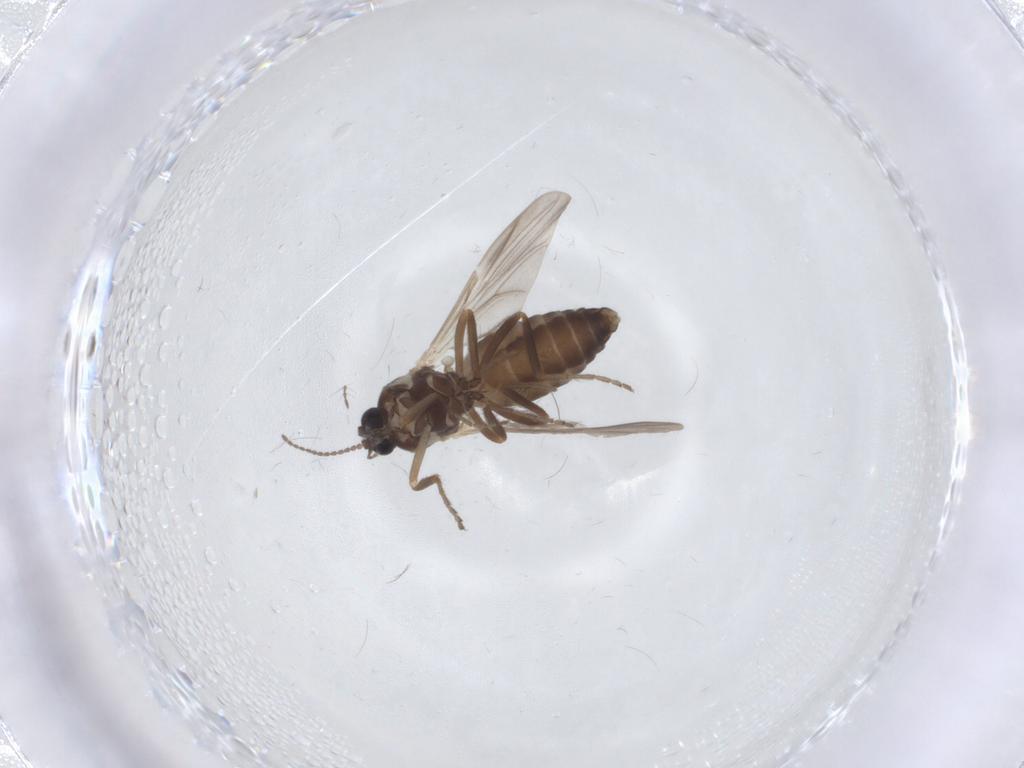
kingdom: Animalia
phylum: Arthropoda
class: Insecta
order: Diptera
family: Ceratopogonidae
